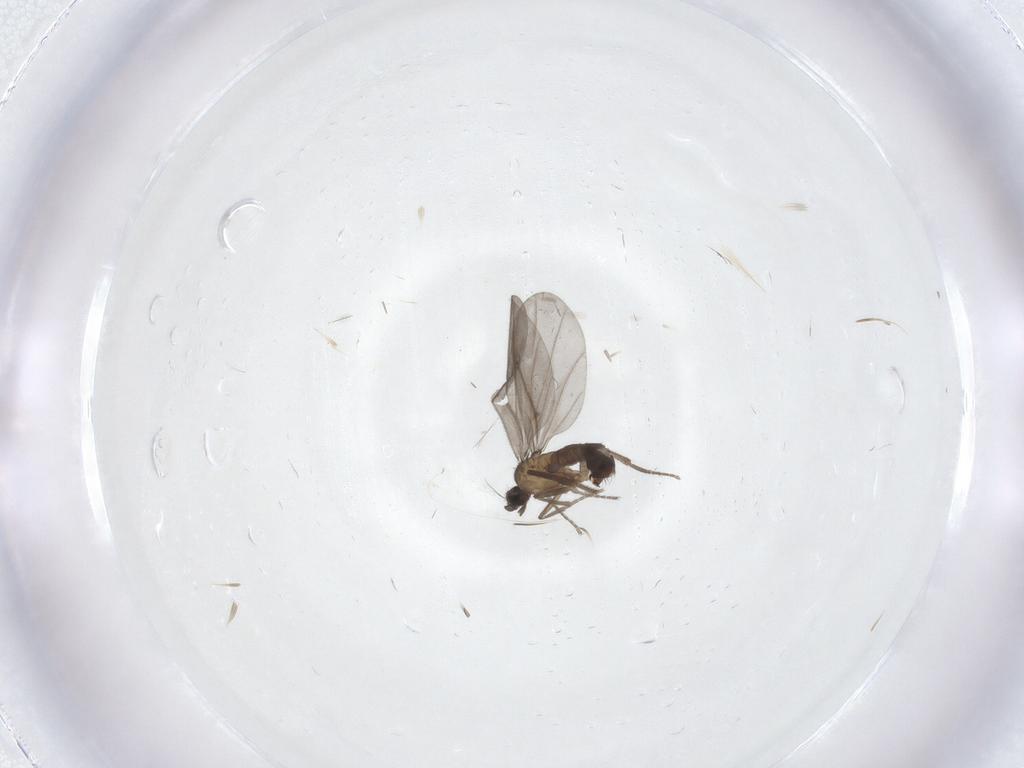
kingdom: Animalia
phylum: Arthropoda
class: Insecta
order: Diptera
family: Phoridae
